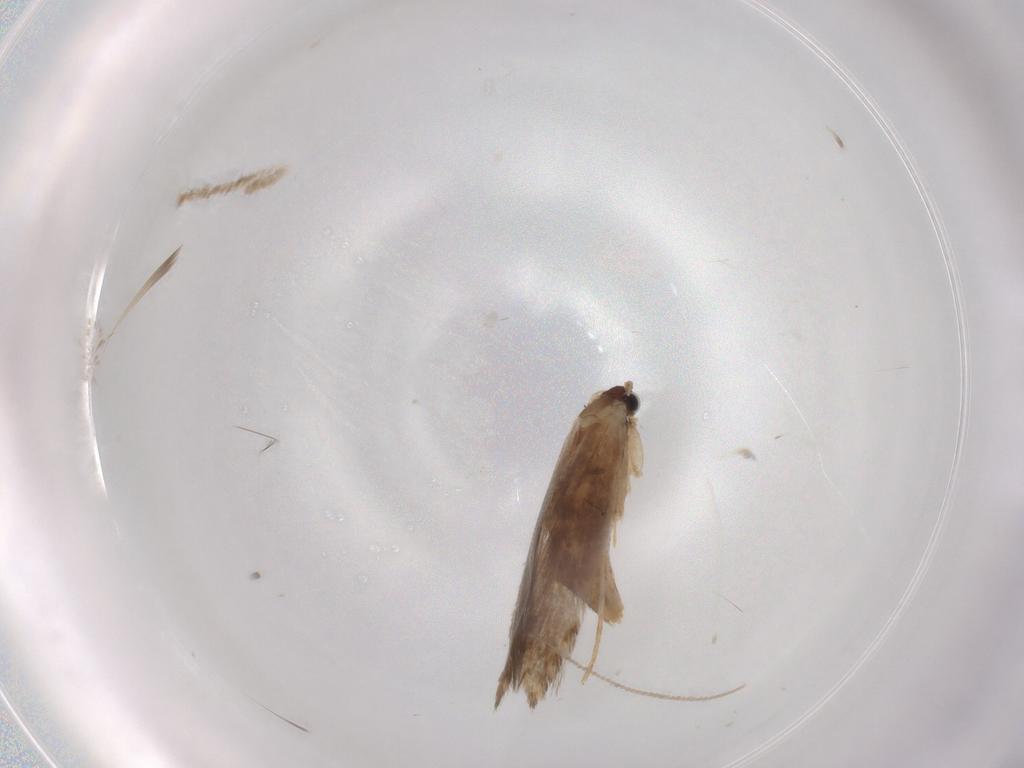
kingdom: Animalia
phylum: Arthropoda
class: Insecta
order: Lepidoptera
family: Tineidae
